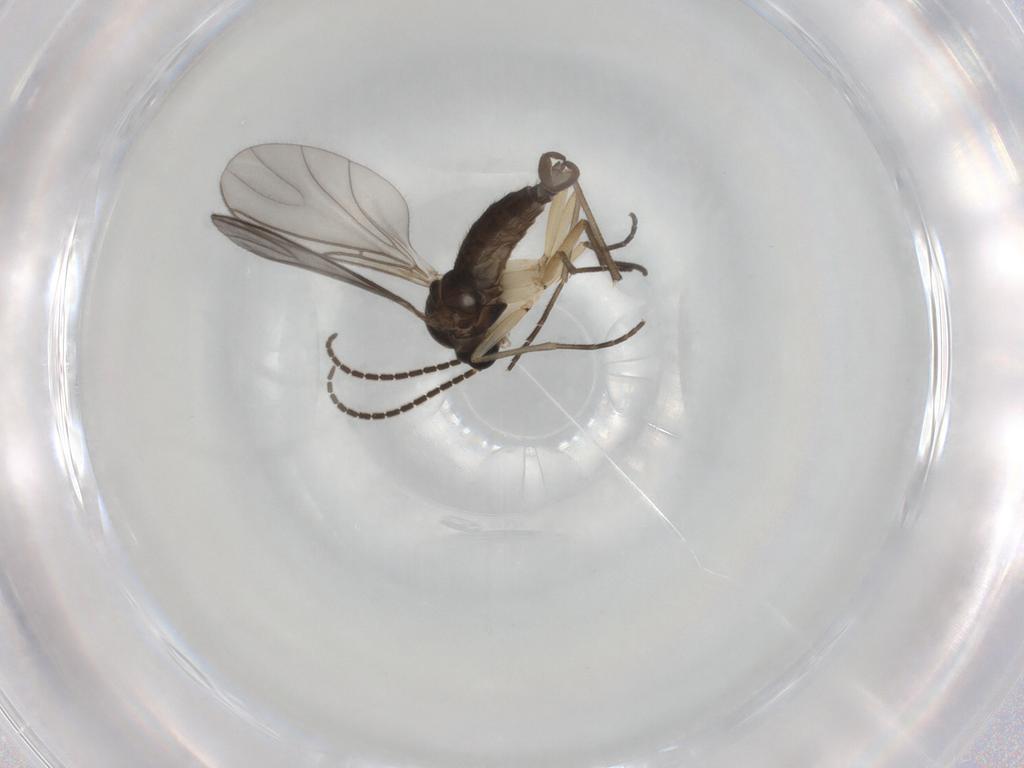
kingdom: Animalia
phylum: Arthropoda
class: Insecta
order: Diptera
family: Sciaridae
